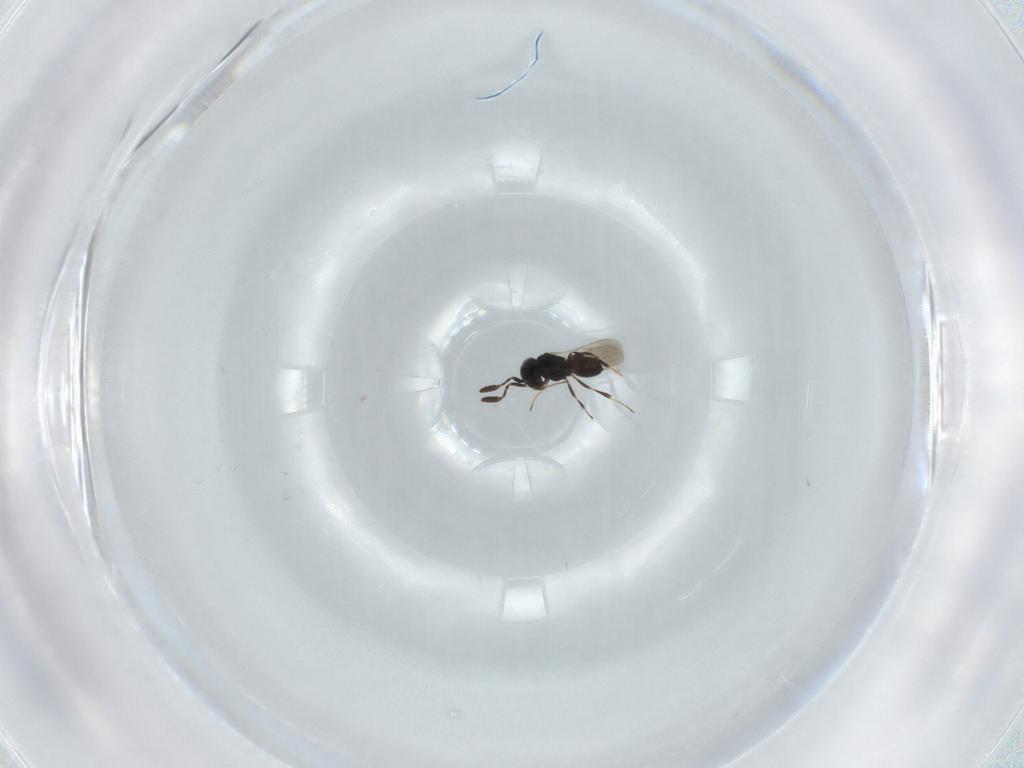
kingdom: Animalia
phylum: Arthropoda
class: Insecta
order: Hymenoptera
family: Scelionidae
